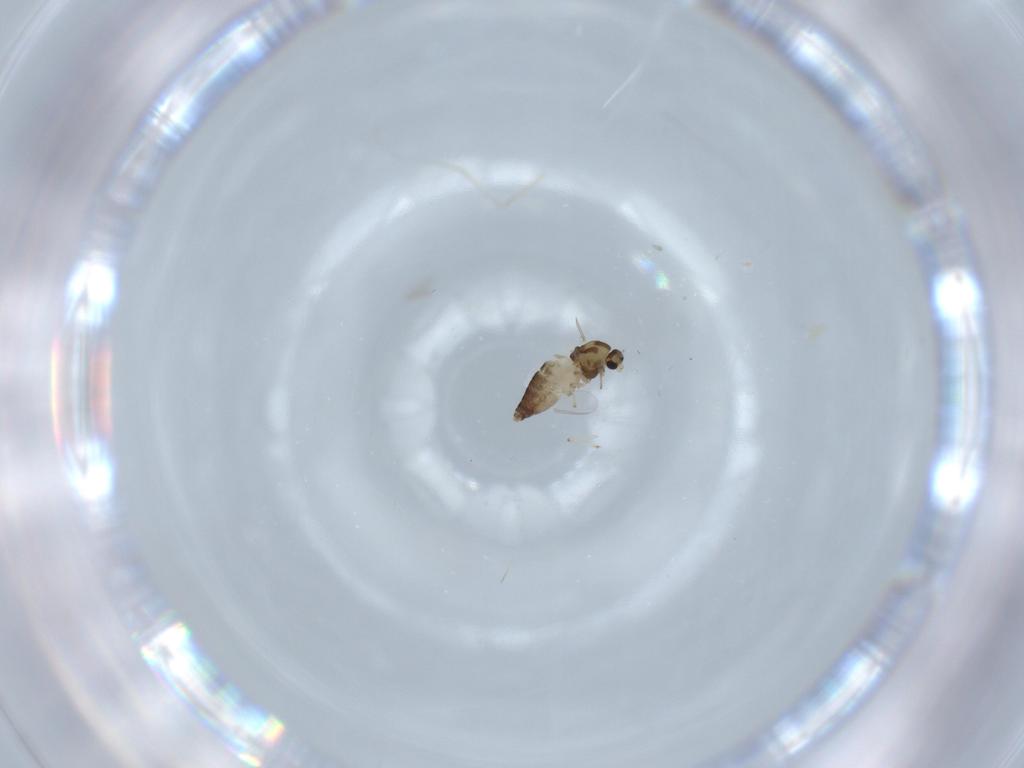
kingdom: Animalia
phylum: Arthropoda
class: Insecta
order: Diptera
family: Chironomidae
